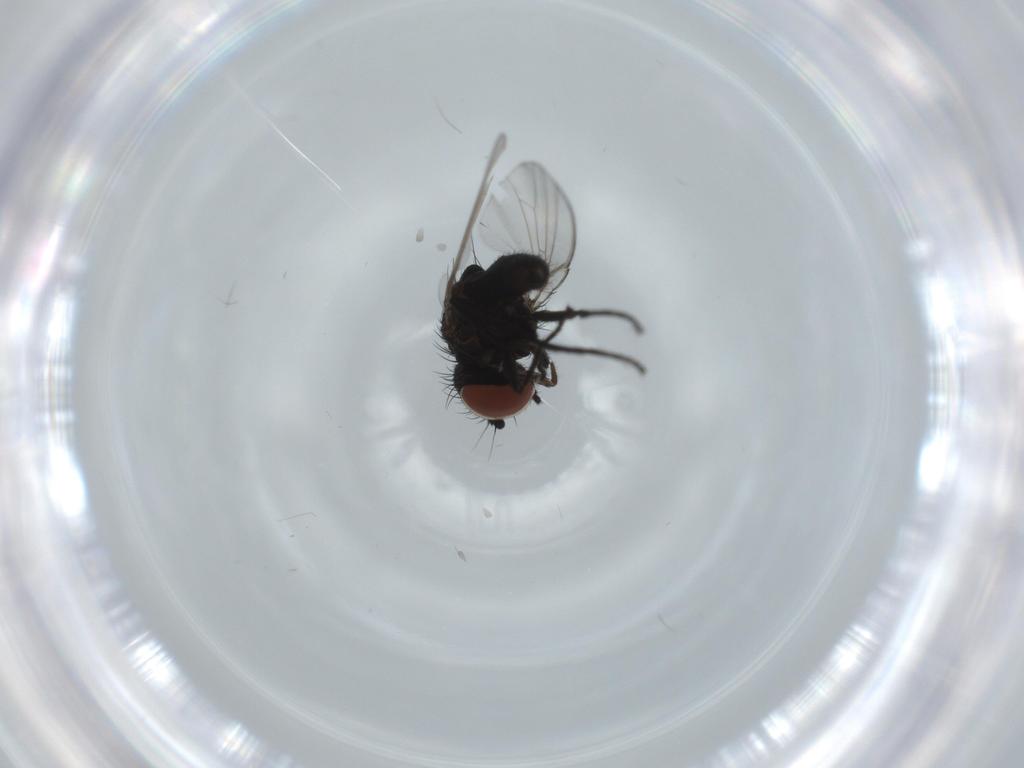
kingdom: Animalia
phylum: Arthropoda
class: Insecta
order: Diptera
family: Milichiidae
